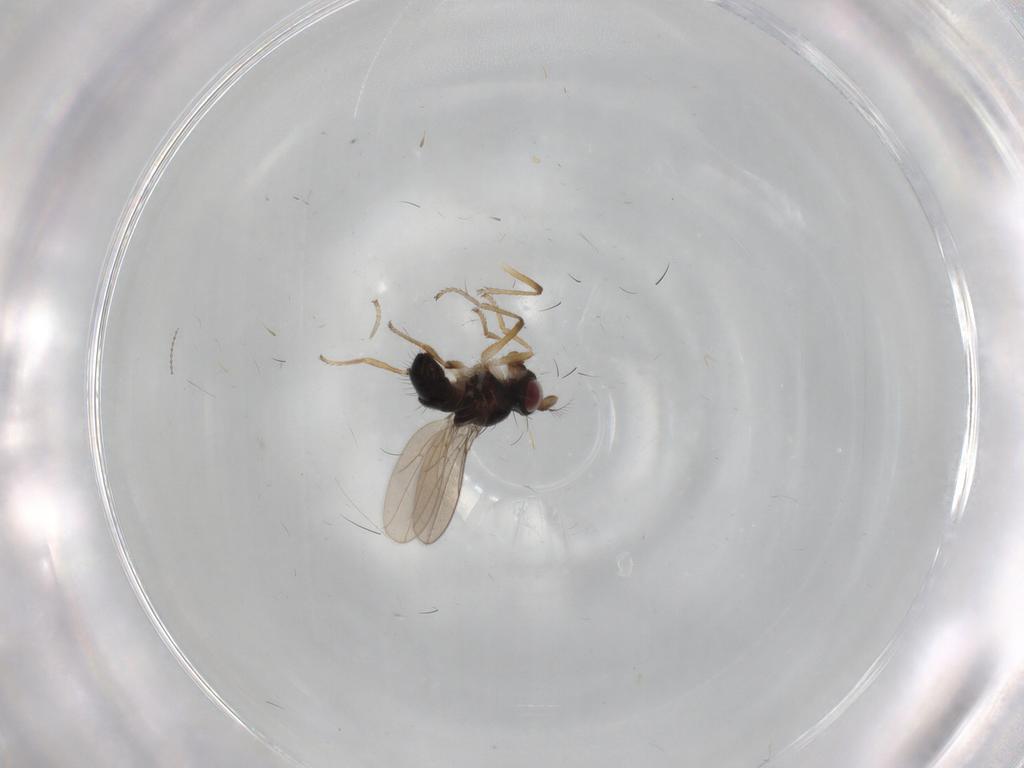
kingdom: Animalia
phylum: Arthropoda
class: Insecta
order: Diptera
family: Ephydridae
